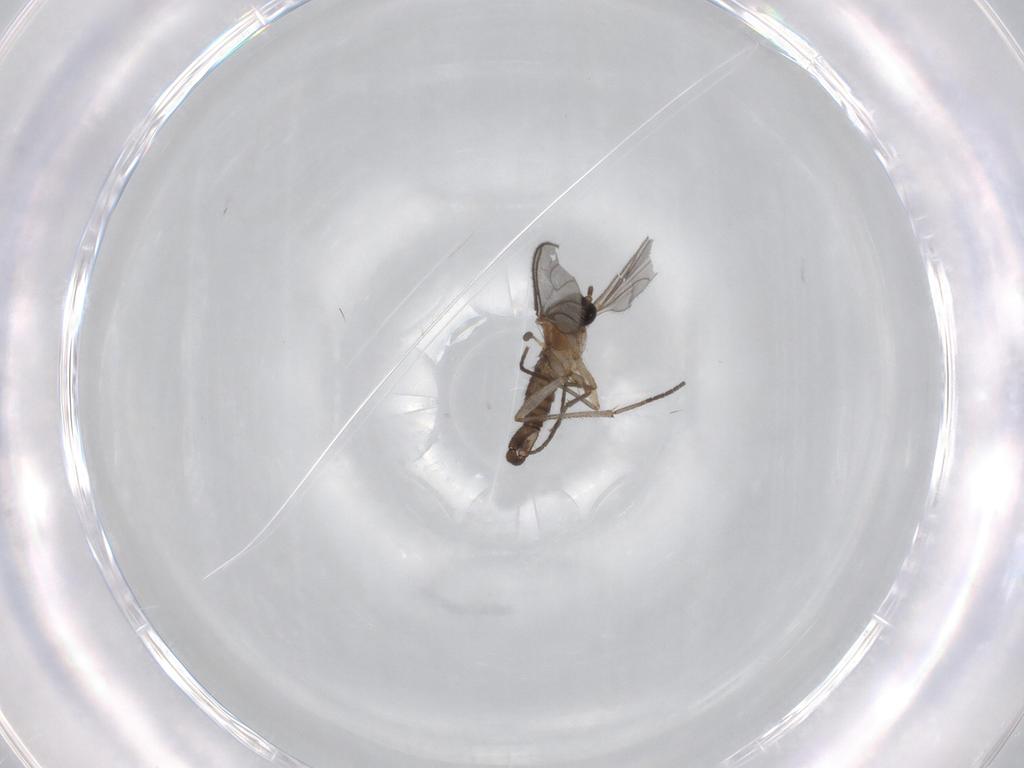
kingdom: Animalia
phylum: Arthropoda
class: Insecta
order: Diptera
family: Sciaridae
